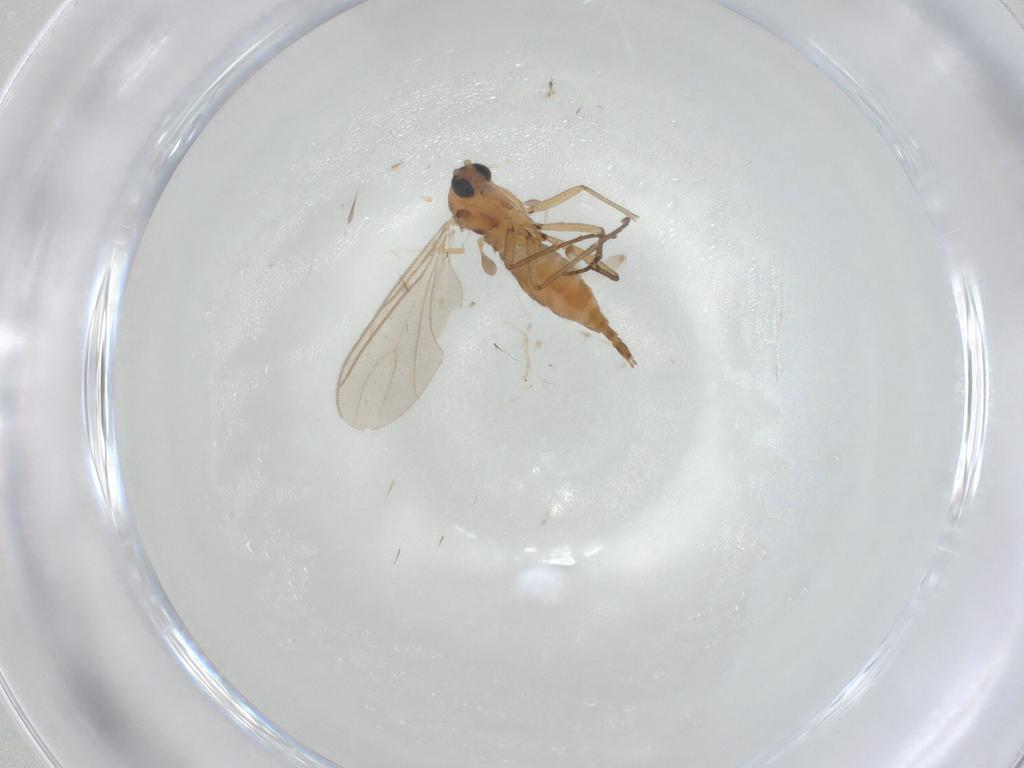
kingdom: Animalia
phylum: Arthropoda
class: Insecta
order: Diptera
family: Sciaridae
